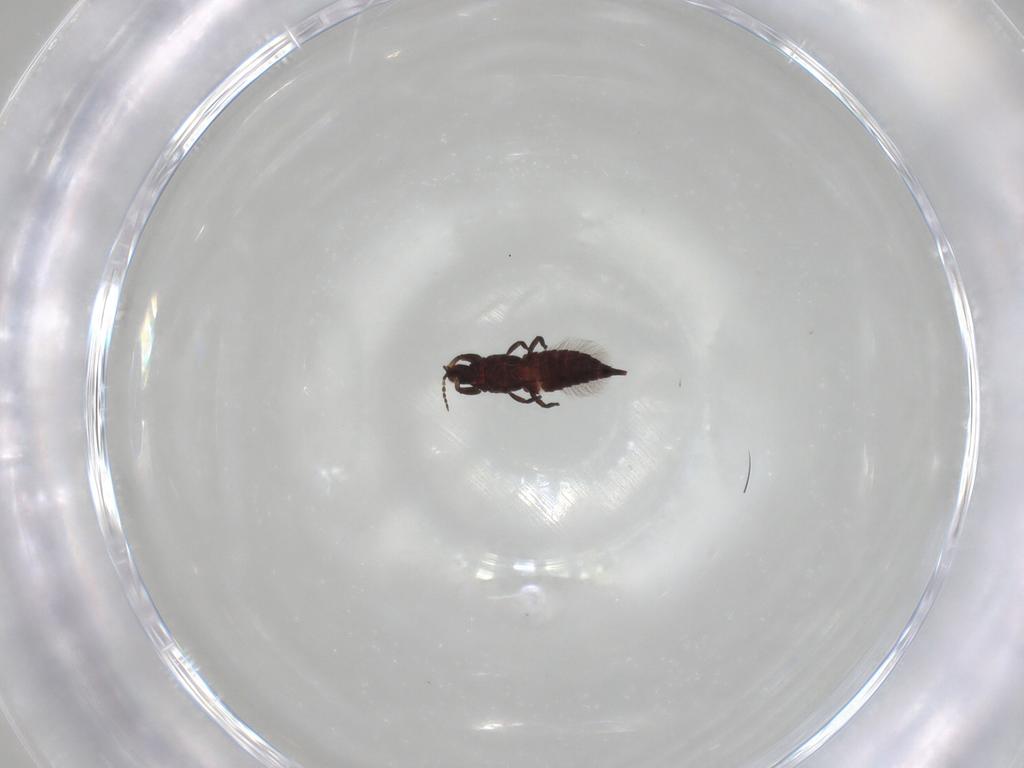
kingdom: Animalia
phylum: Arthropoda
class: Insecta
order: Thysanoptera
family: Phlaeothripidae
